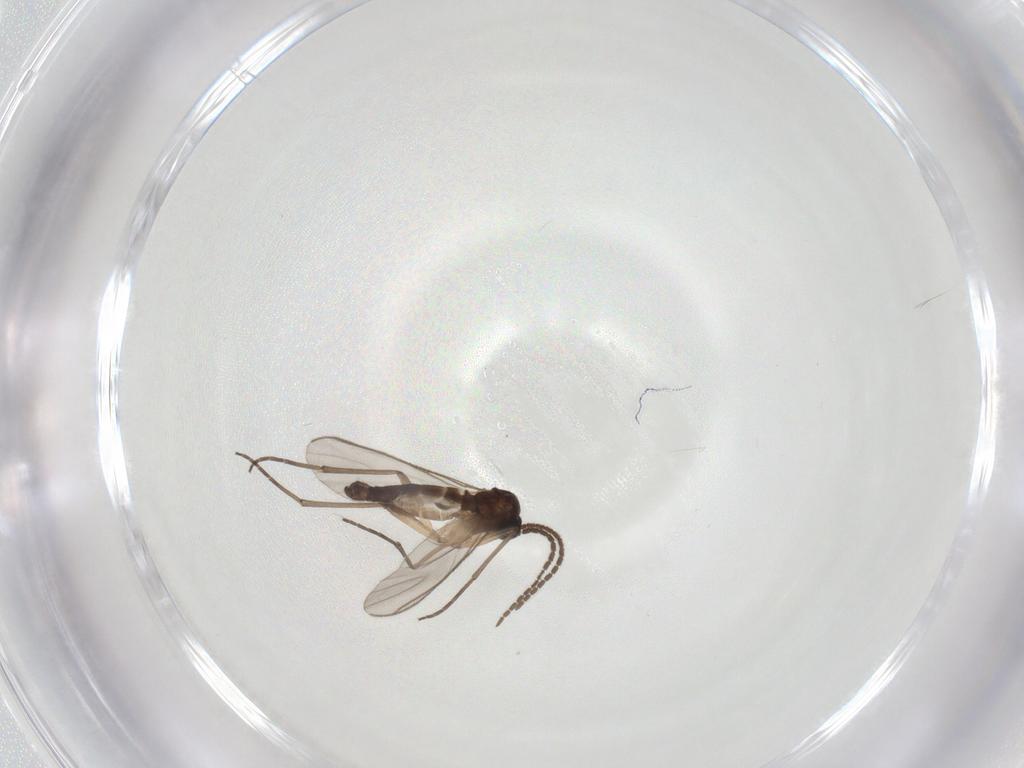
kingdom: Animalia
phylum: Arthropoda
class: Insecta
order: Diptera
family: Sciaridae
